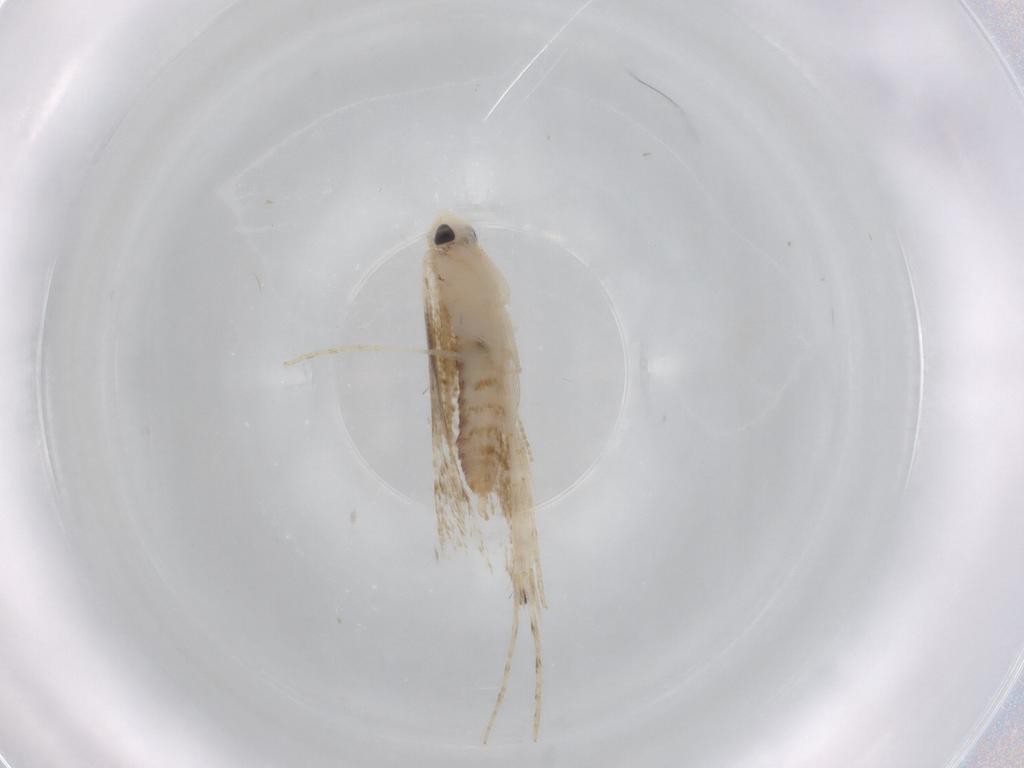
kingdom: Animalia
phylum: Arthropoda
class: Insecta
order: Lepidoptera
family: Gracillariidae
